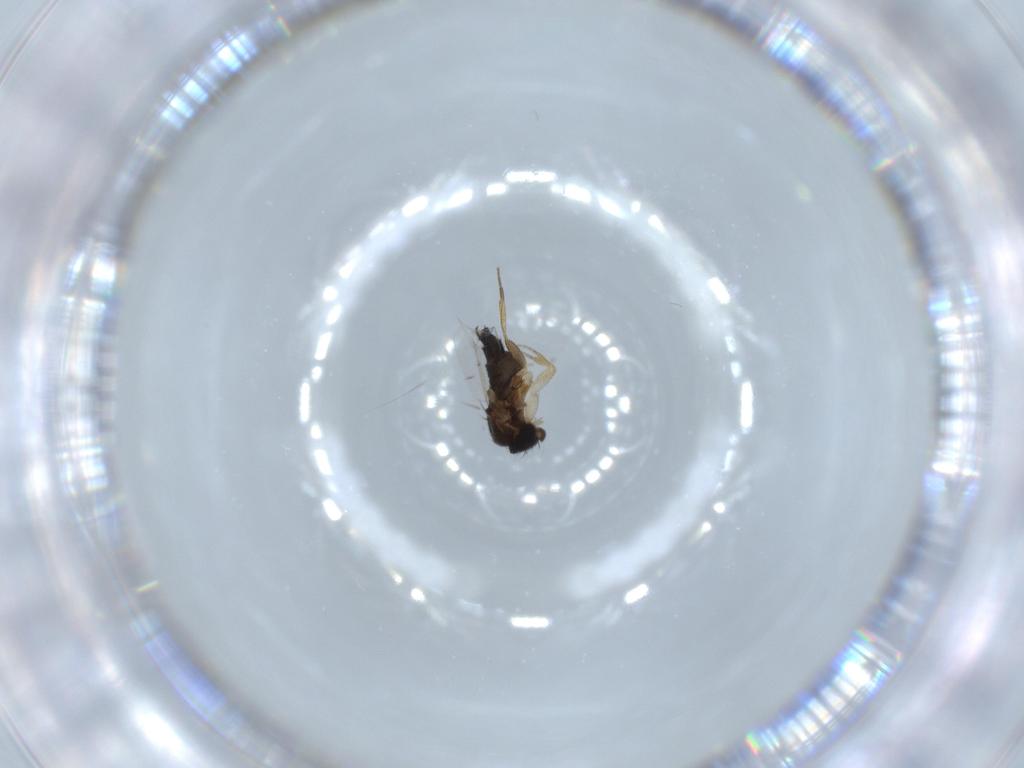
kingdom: Animalia
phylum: Arthropoda
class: Insecta
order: Diptera
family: Phoridae
